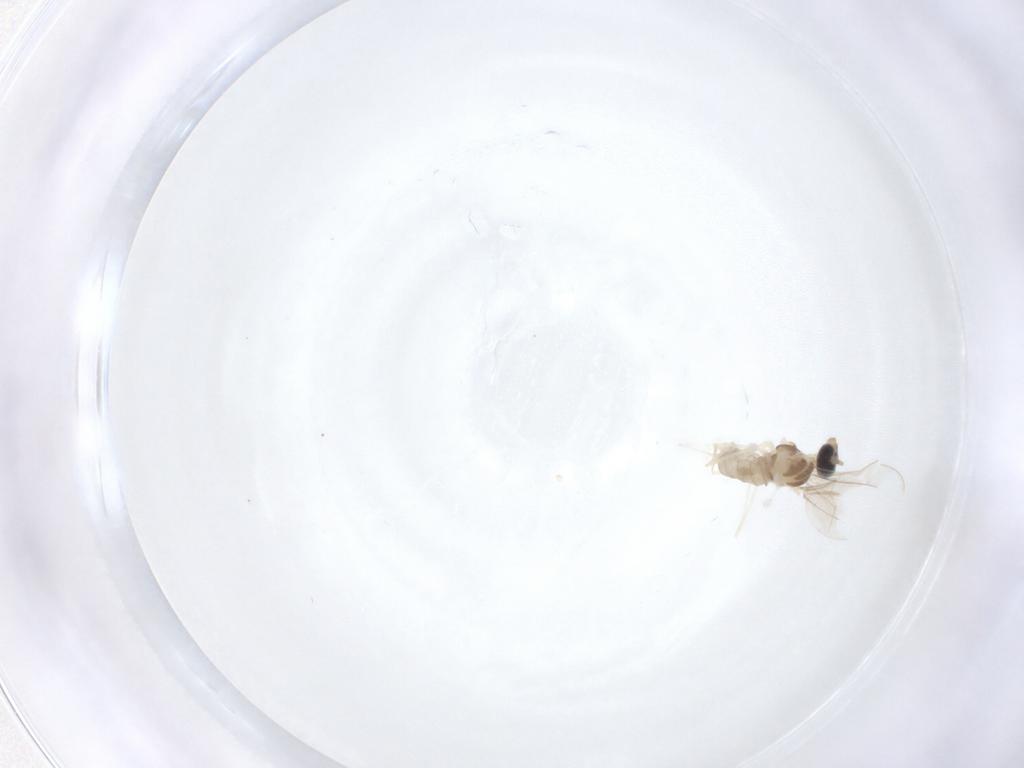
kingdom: Animalia
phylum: Arthropoda
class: Insecta
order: Diptera
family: Cecidomyiidae
